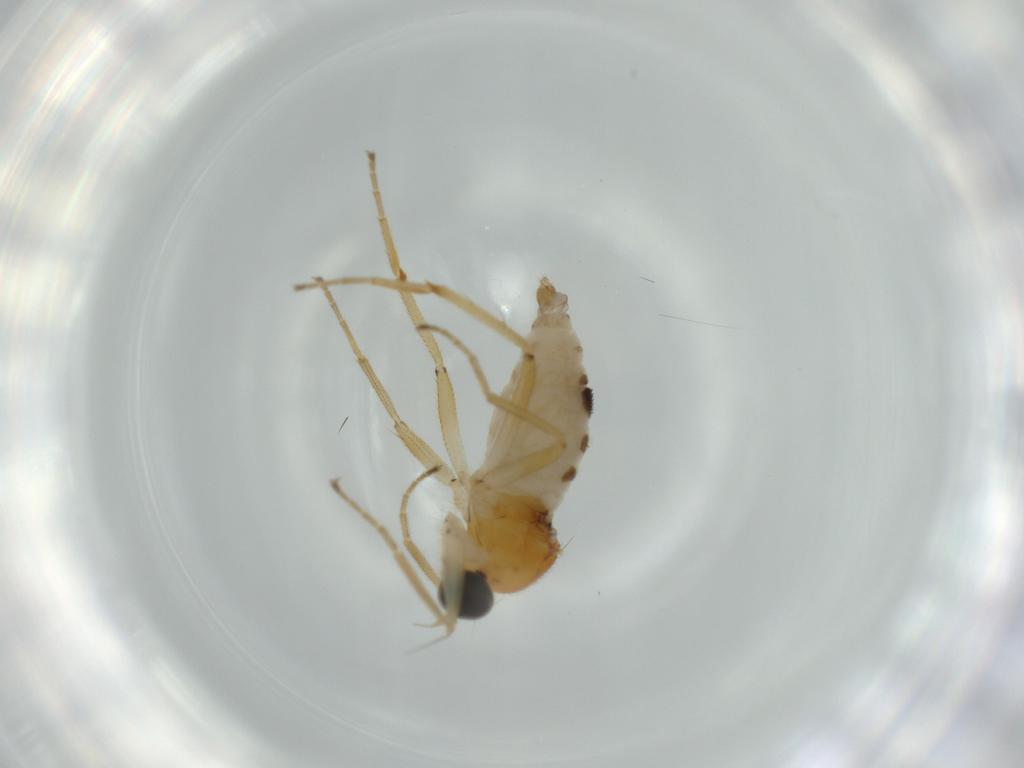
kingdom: Animalia
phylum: Arthropoda
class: Insecta
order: Diptera
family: Hybotidae
